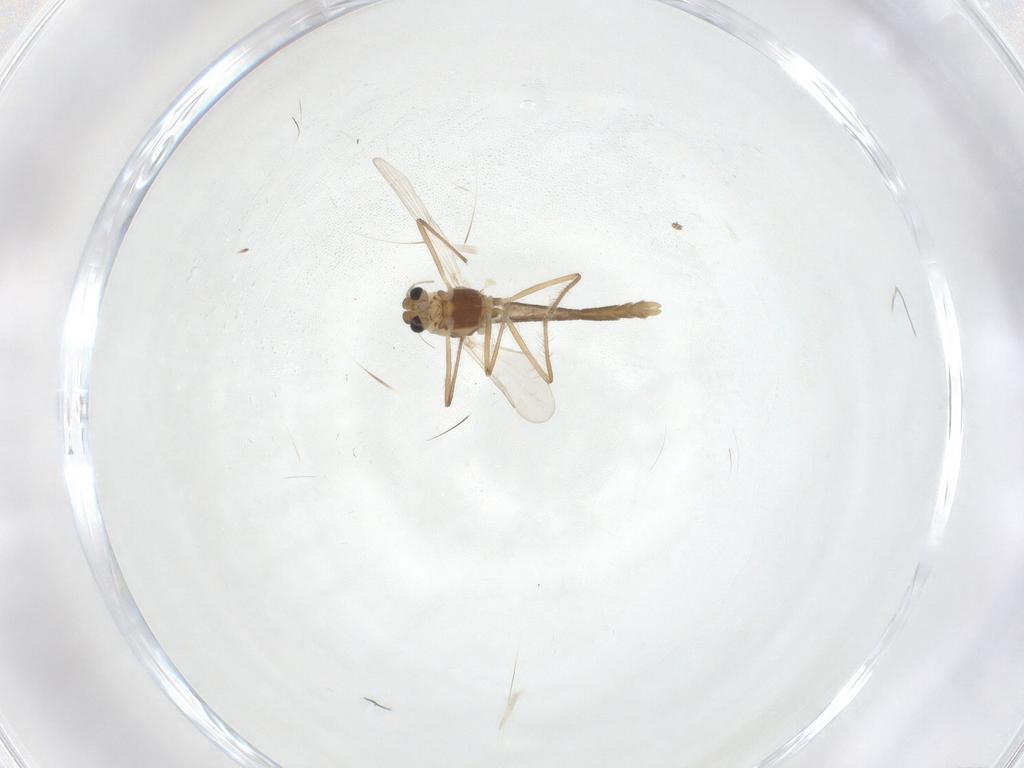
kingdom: Animalia
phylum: Arthropoda
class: Insecta
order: Diptera
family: Chironomidae
